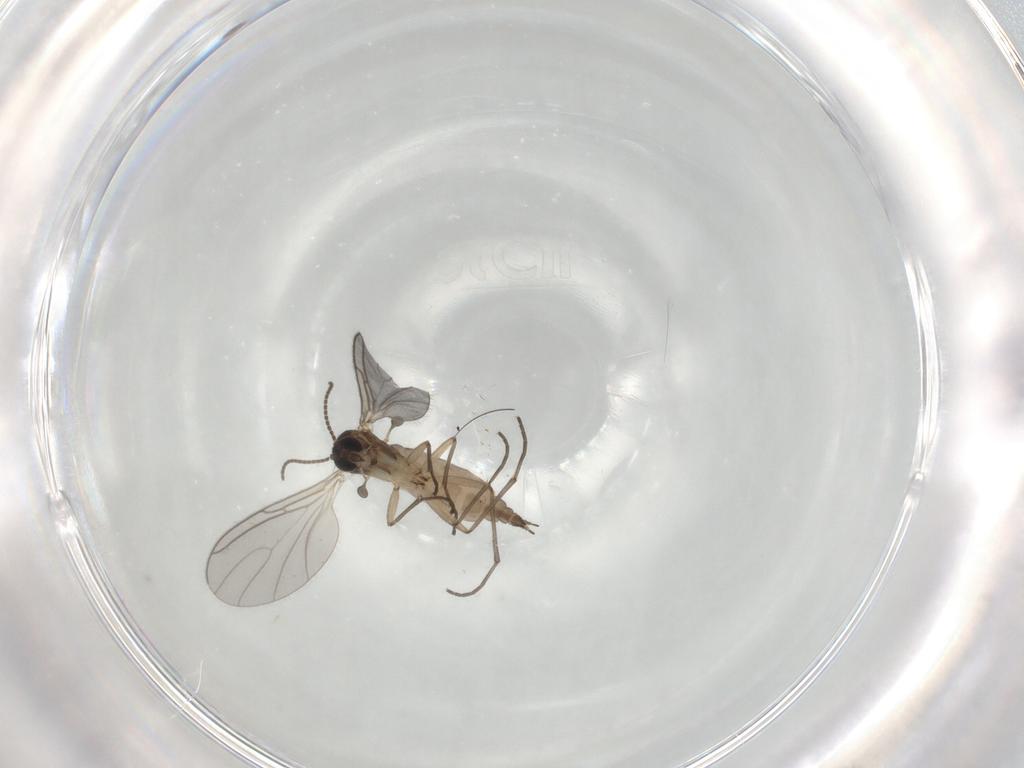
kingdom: Animalia
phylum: Arthropoda
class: Insecta
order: Diptera
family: Sciaridae
